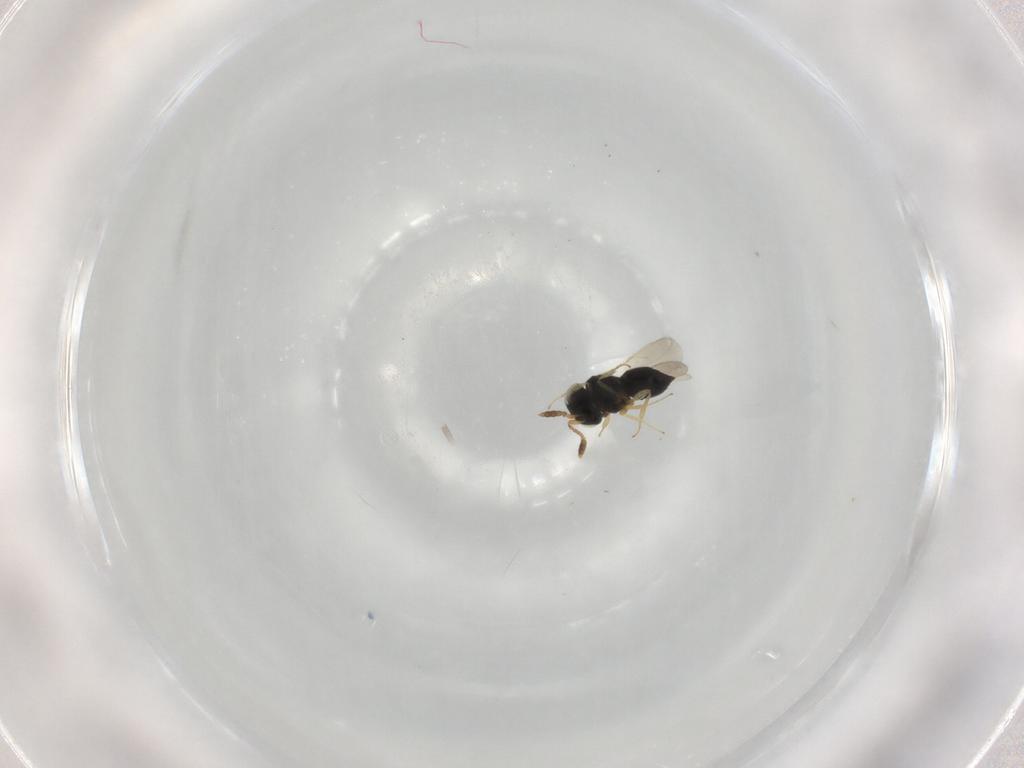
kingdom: Animalia
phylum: Arthropoda
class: Insecta
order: Hymenoptera
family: Scelionidae
